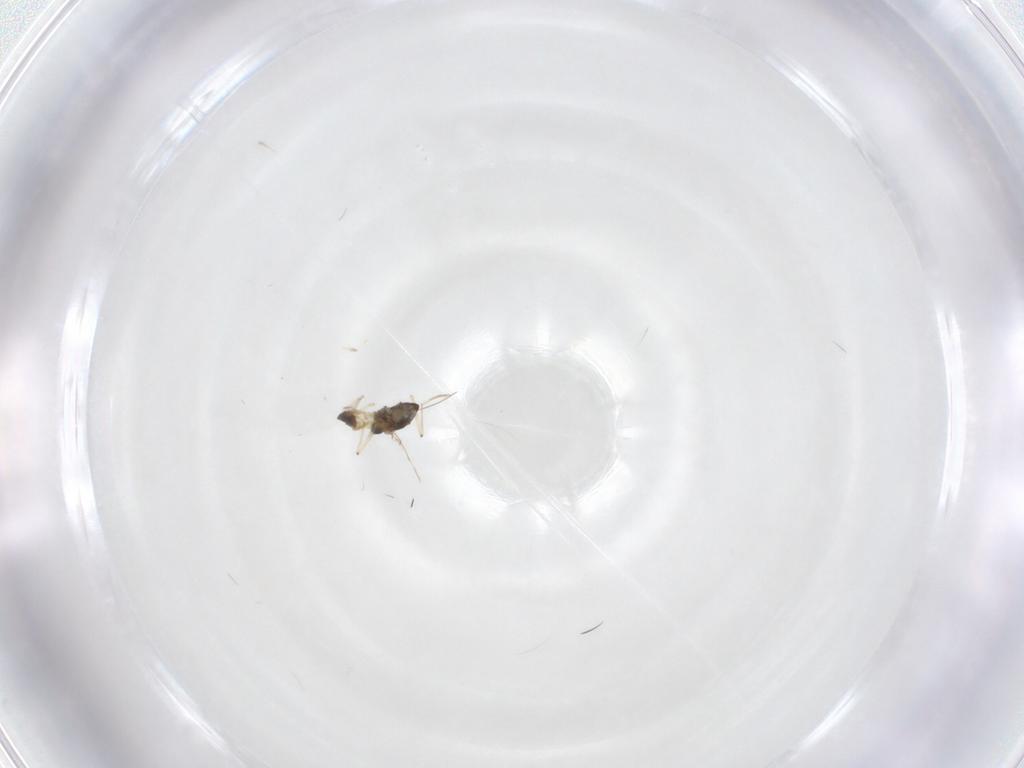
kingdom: Animalia
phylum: Arthropoda
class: Insecta
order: Diptera
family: Chironomidae
